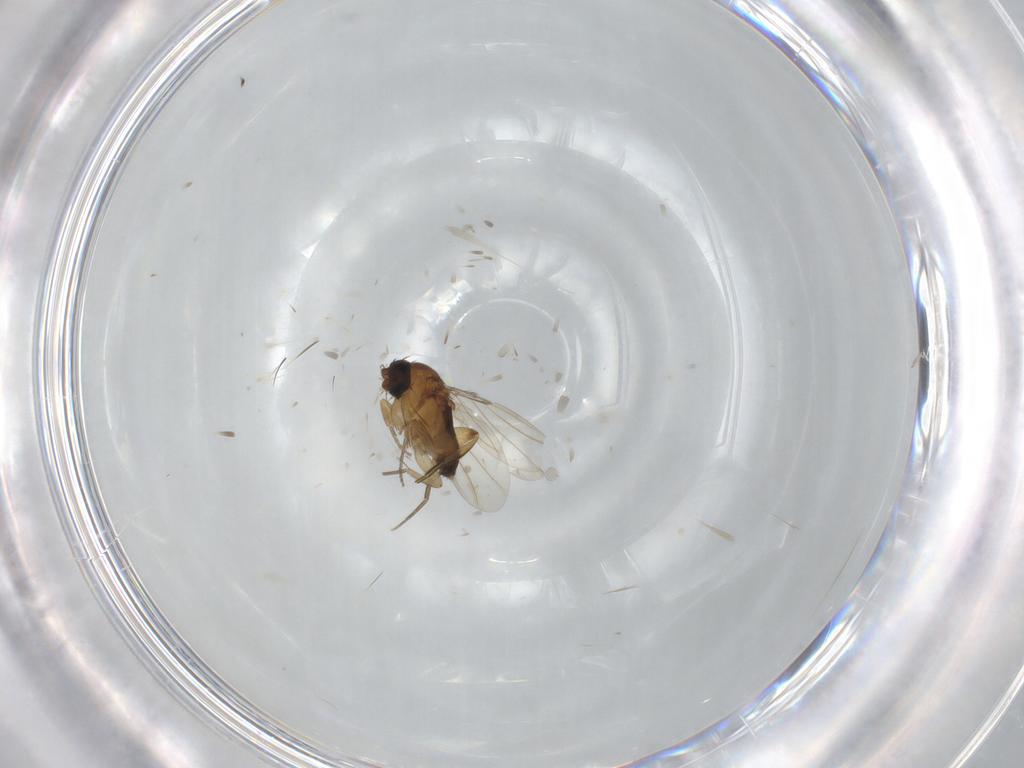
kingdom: Animalia
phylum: Arthropoda
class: Insecta
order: Diptera
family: Phoridae
